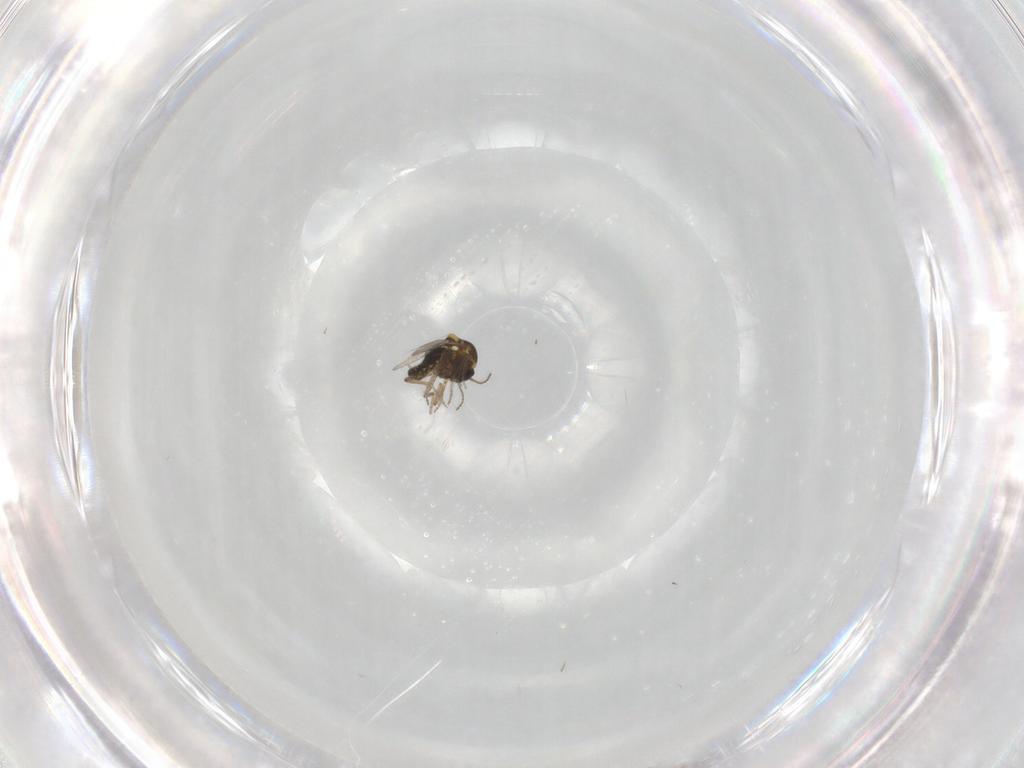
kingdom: Animalia
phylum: Arthropoda
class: Insecta
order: Diptera
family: Ceratopogonidae
